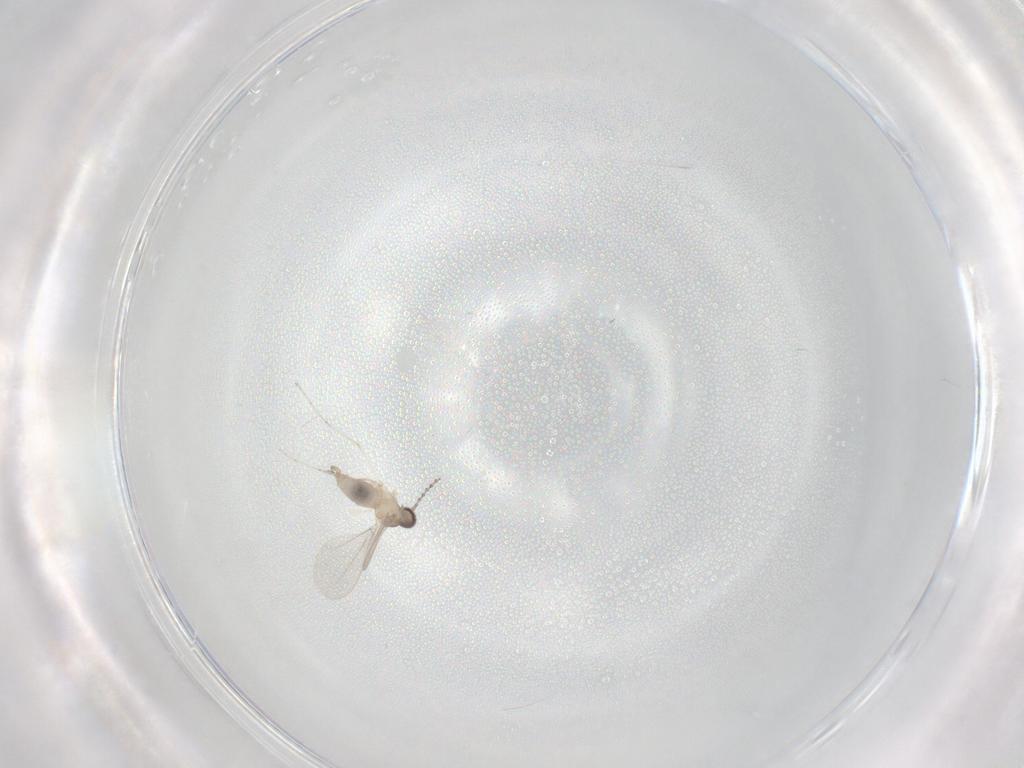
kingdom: Animalia
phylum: Arthropoda
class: Insecta
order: Diptera
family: Cecidomyiidae
